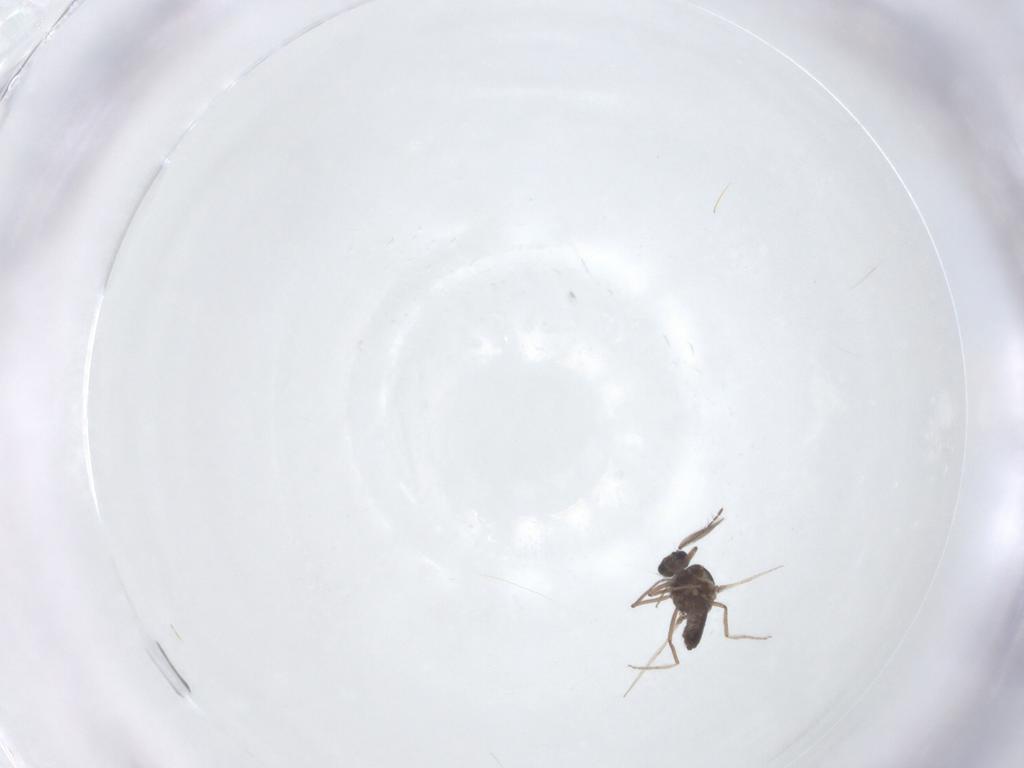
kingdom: Animalia
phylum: Arthropoda
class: Insecta
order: Diptera
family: Ceratopogonidae
